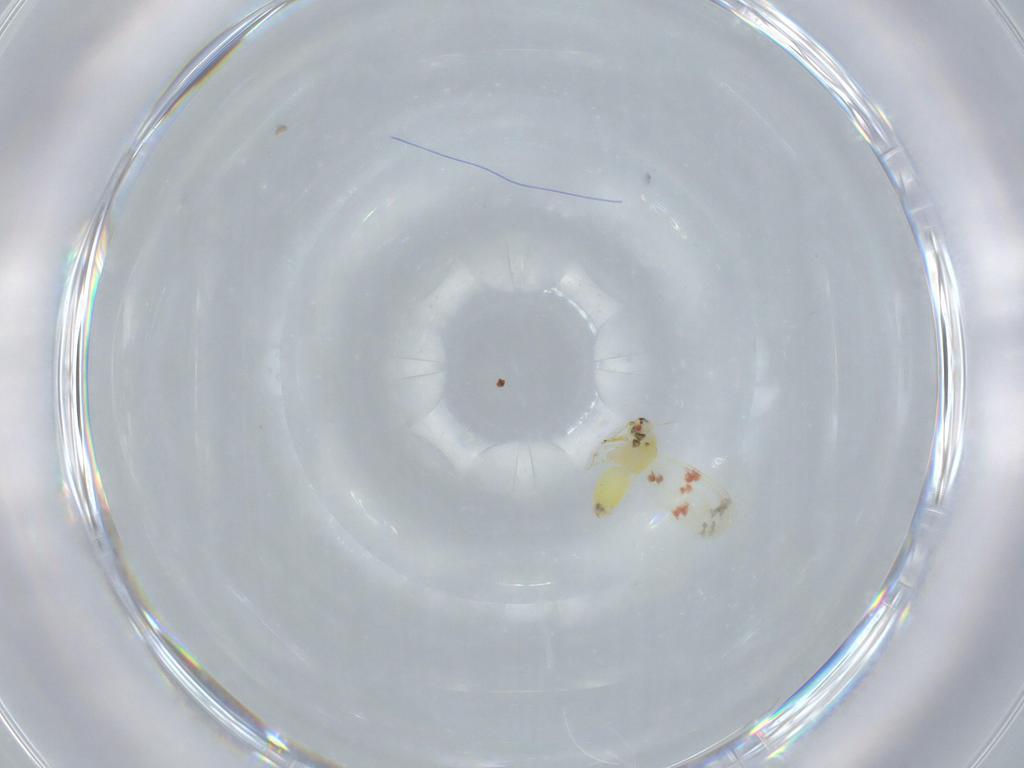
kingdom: Animalia
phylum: Arthropoda
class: Insecta
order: Hemiptera
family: Aleyrodidae
